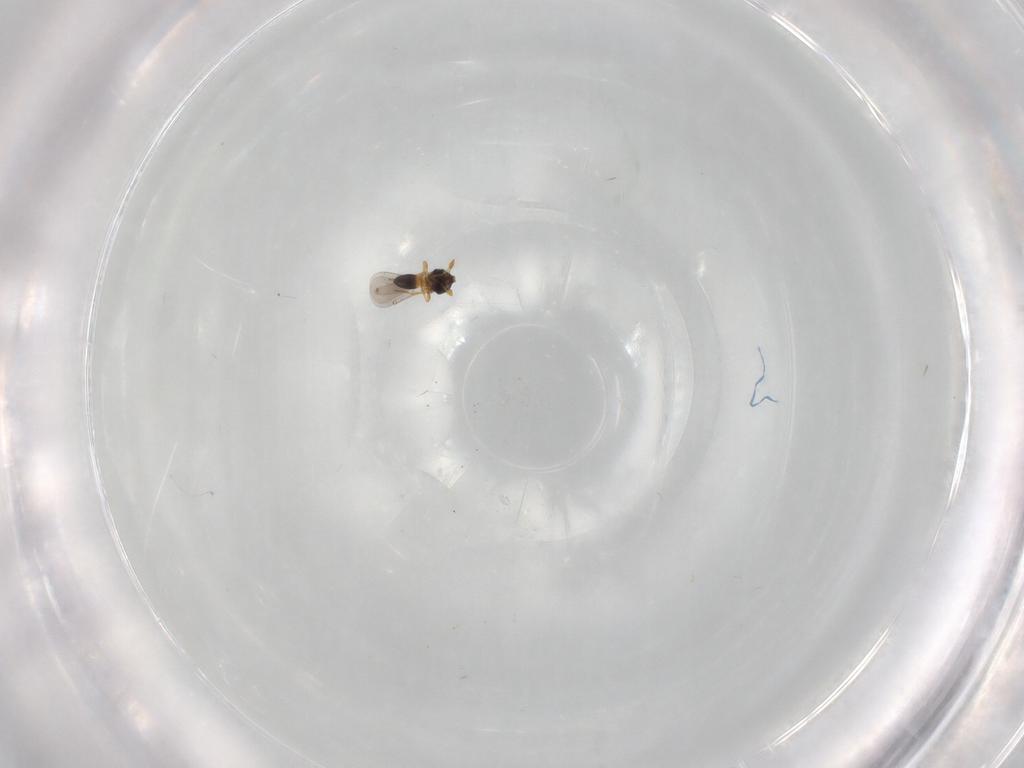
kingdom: Animalia
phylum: Arthropoda
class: Insecta
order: Hymenoptera
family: Platygastridae
